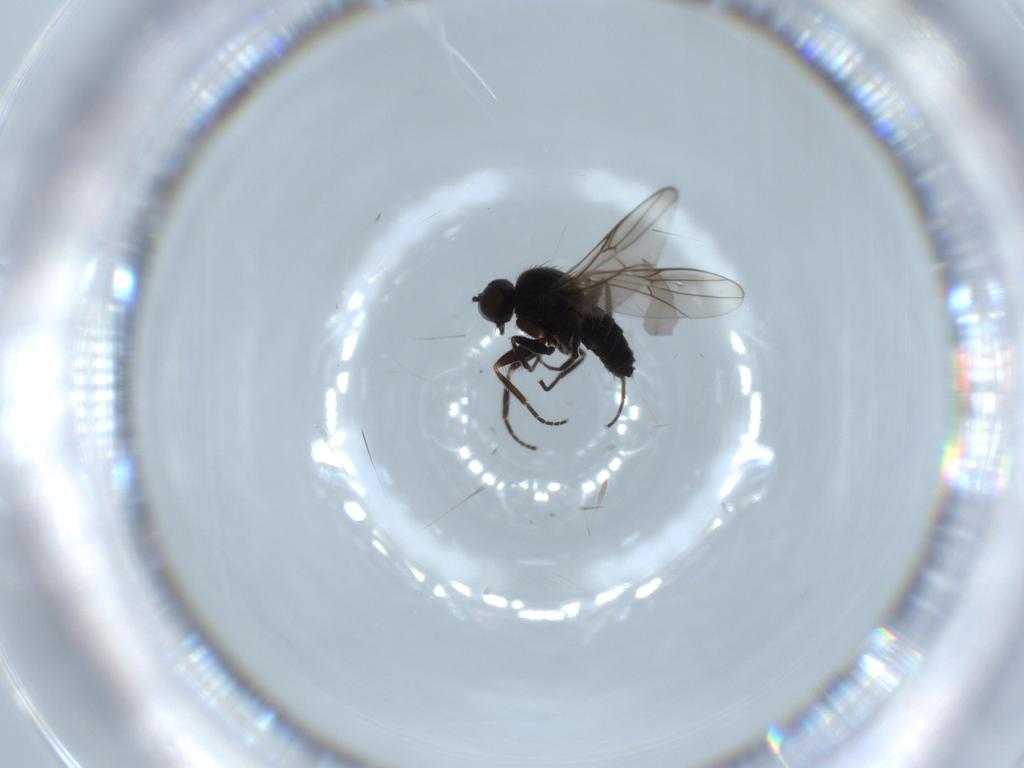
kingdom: Animalia
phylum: Arthropoda
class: Insecta
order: Diptera
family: Hybotidae
